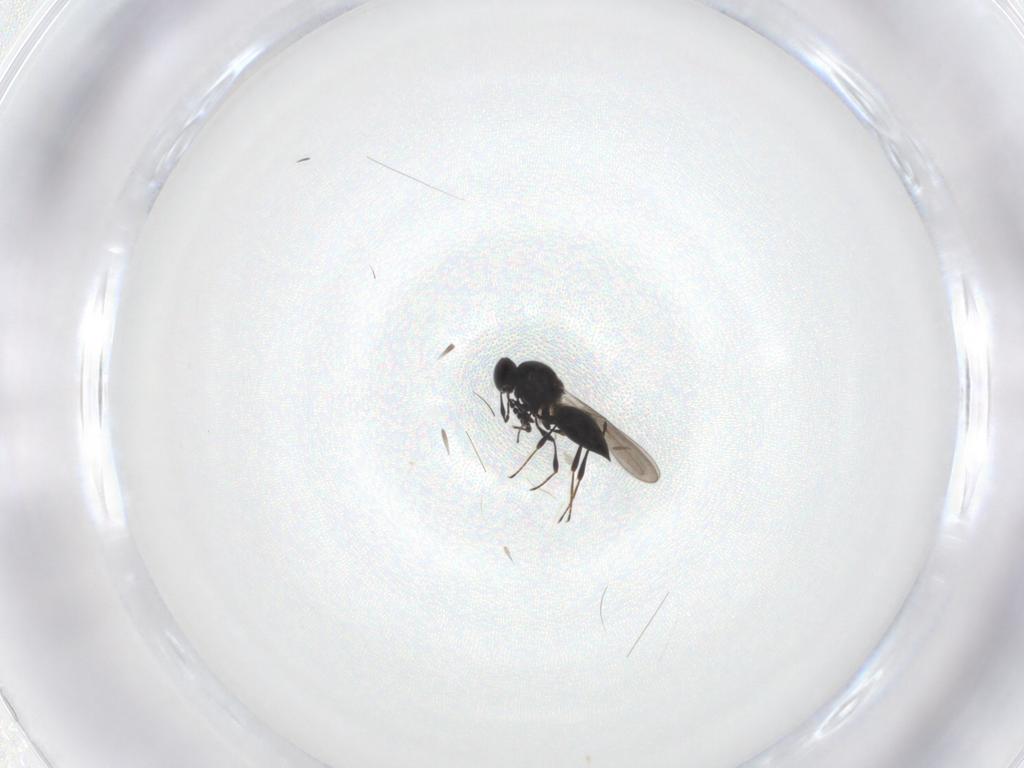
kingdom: Animalia
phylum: Arthropoda
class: Insecta
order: Hymenoptera
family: Platygastridae
